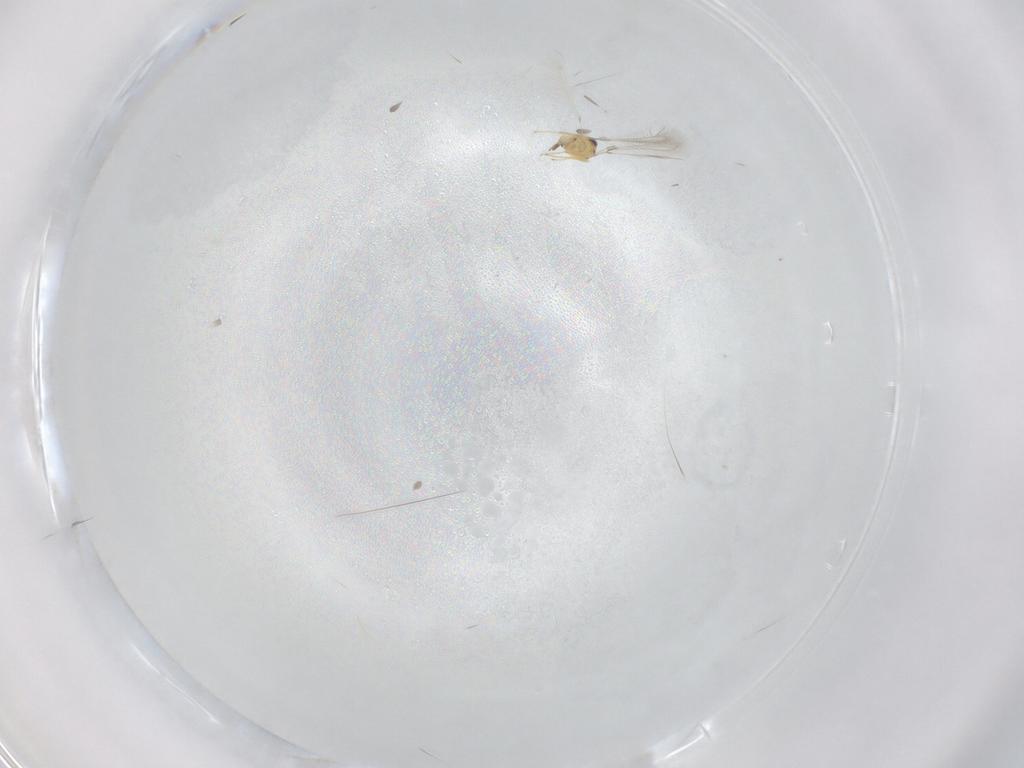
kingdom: Animalia
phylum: Arthropoda
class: Insecta
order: Hymenoptera
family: Mymaridae
